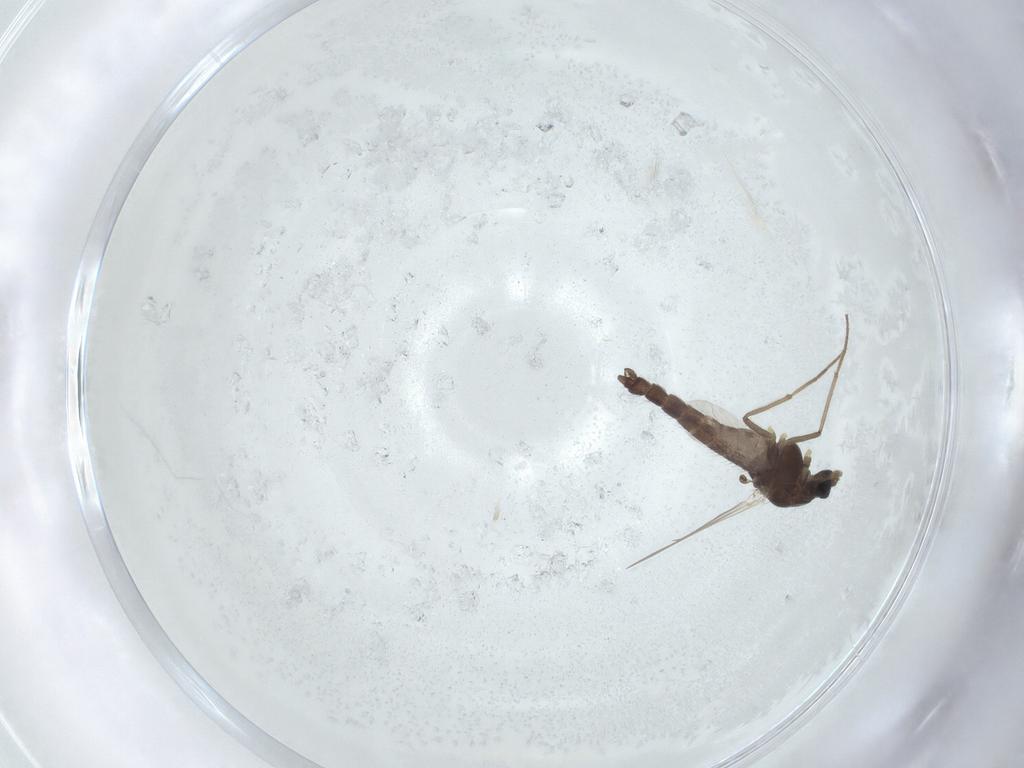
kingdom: Animalia
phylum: Arthropoda
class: Insecta
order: Diptera
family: Chironomidae
